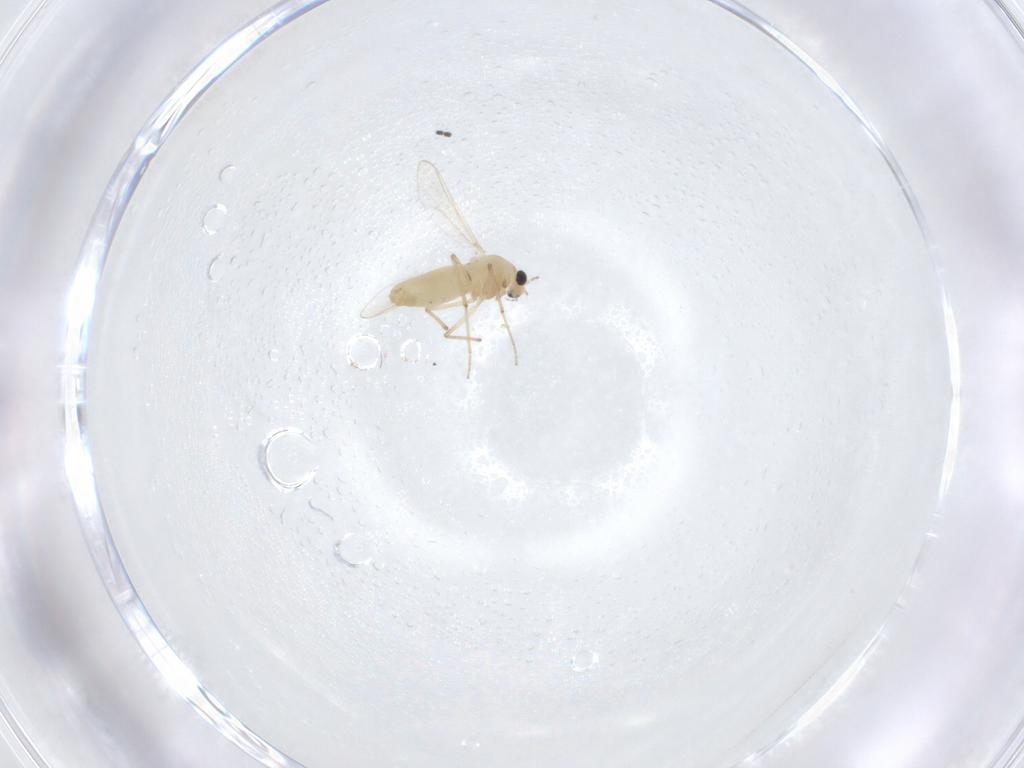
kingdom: Animalia
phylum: Arthropoda
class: Insecta
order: Diptera
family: Chironomidae
